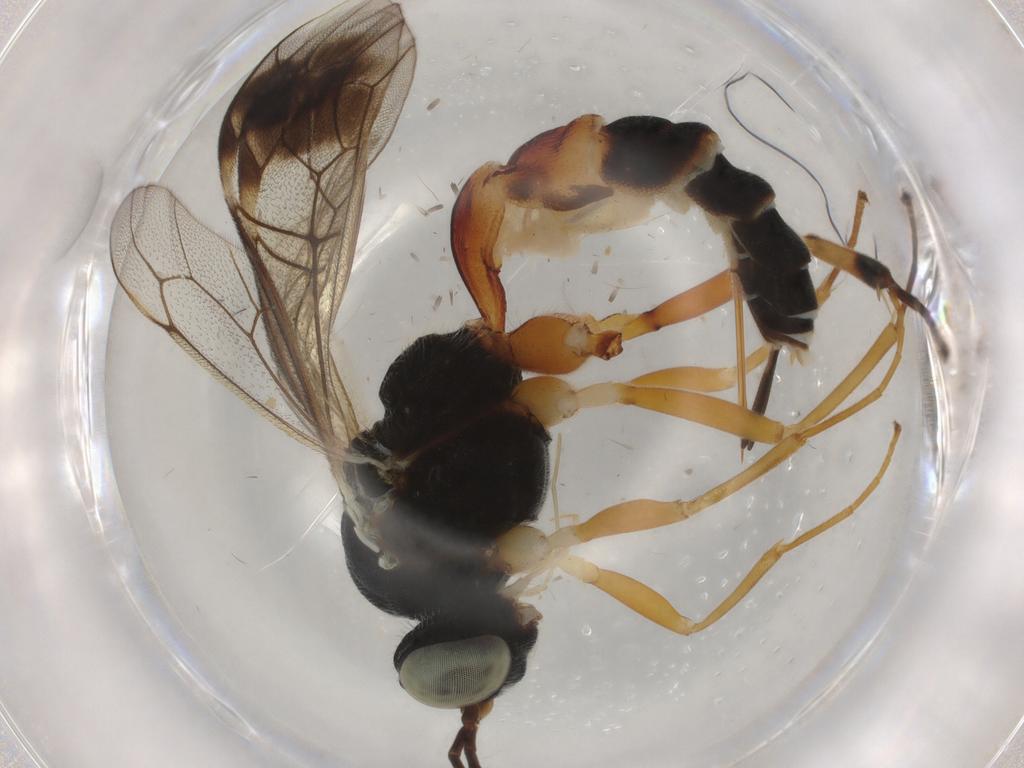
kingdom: Animalia
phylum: Arthropoda
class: Insecta
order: Hymenoptera
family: Ichneumonidae
